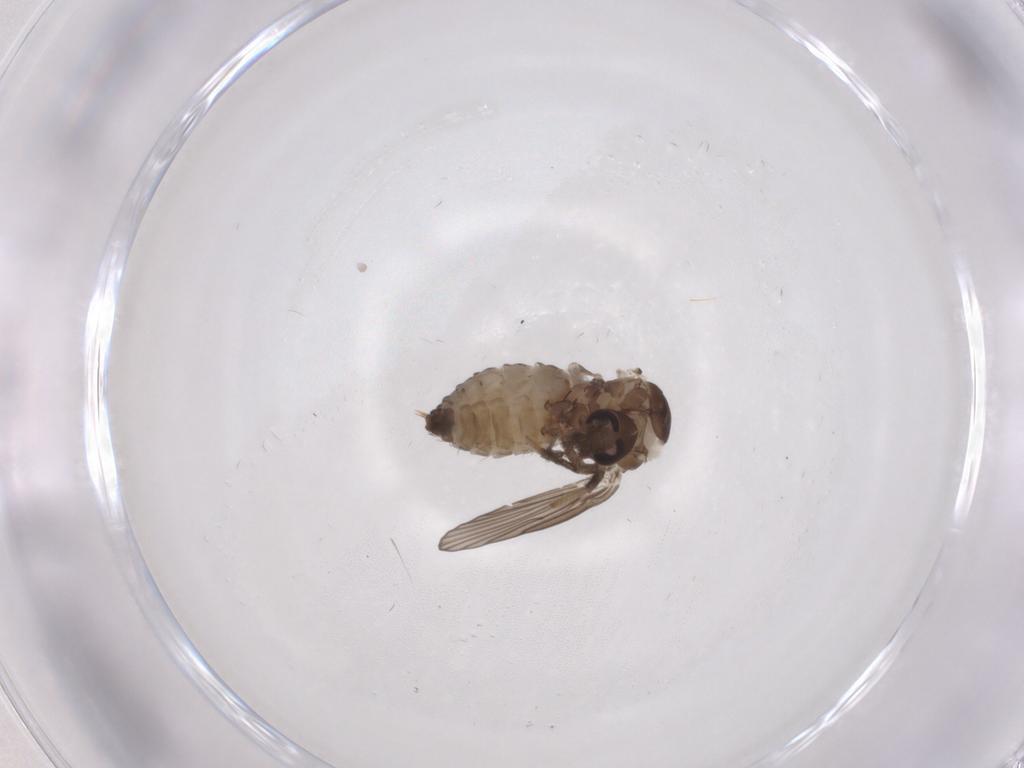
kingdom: Animalia
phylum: Arthropoda
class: Insecta
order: Diptera
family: Psychodidae
